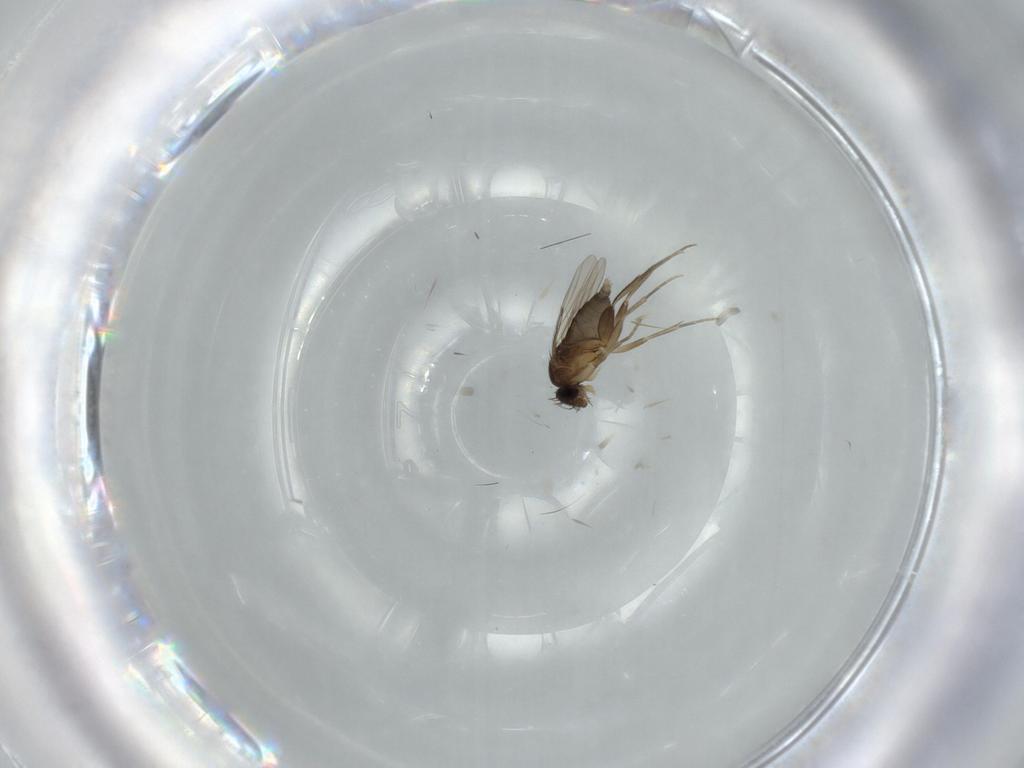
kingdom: Animalia
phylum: Arthropoda
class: Insecta
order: Diptera
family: Phoridae
